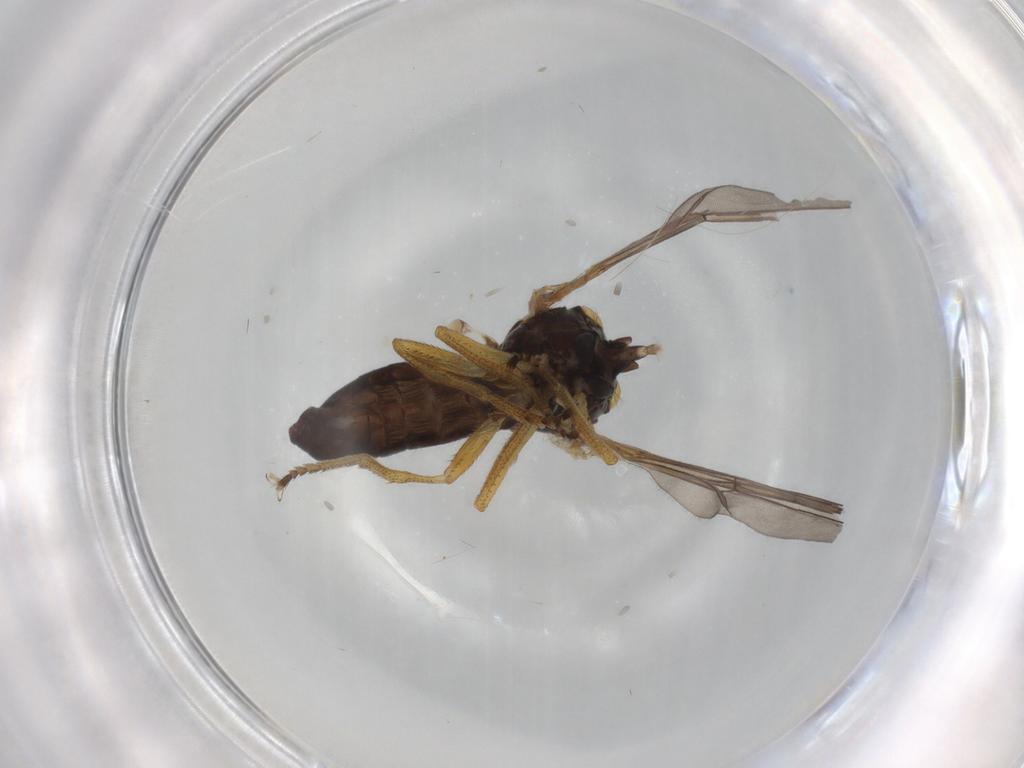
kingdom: Animalia
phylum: Arthropoda
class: Insecta
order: Diptera
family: Pipunculidae
